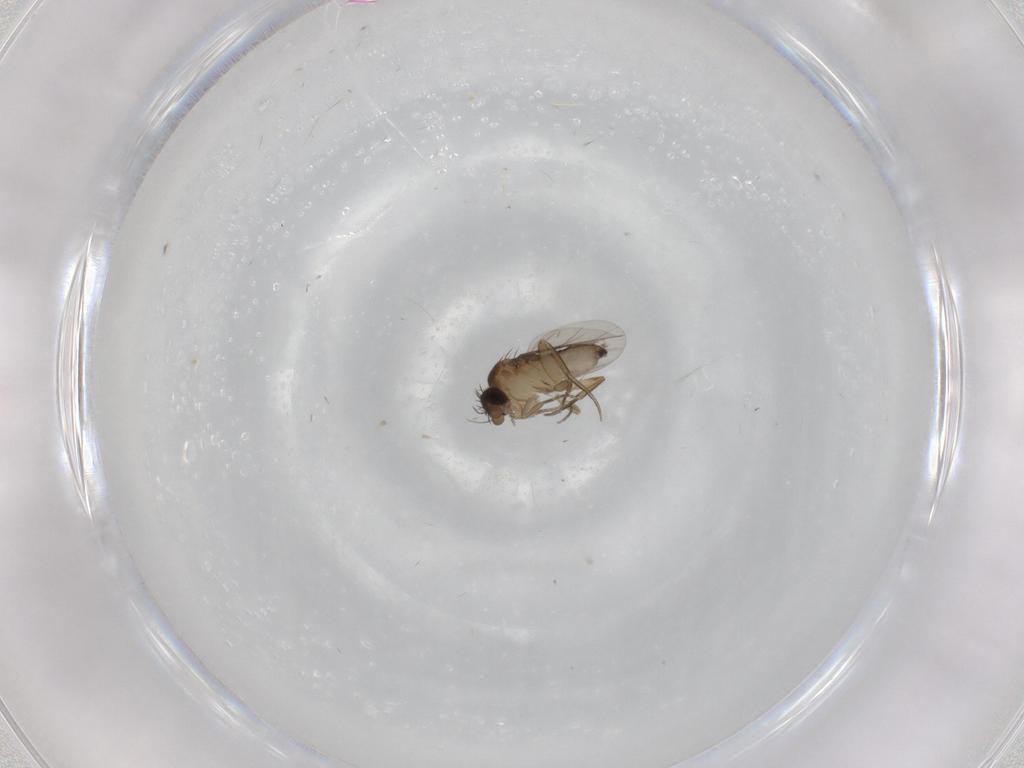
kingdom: Animalia
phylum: Arthropoda
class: Insecta
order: Diptera
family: Phoridae
